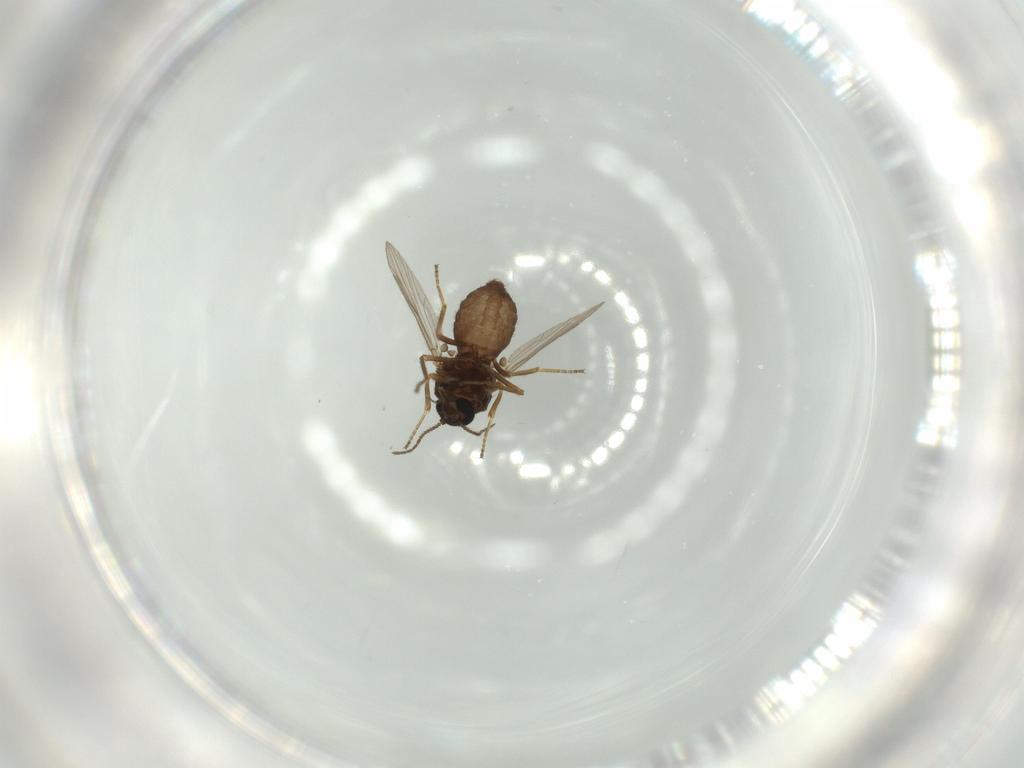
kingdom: Animalia
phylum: Arthropoda
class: Insecta
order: Diptera
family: Ceratopogonidae
